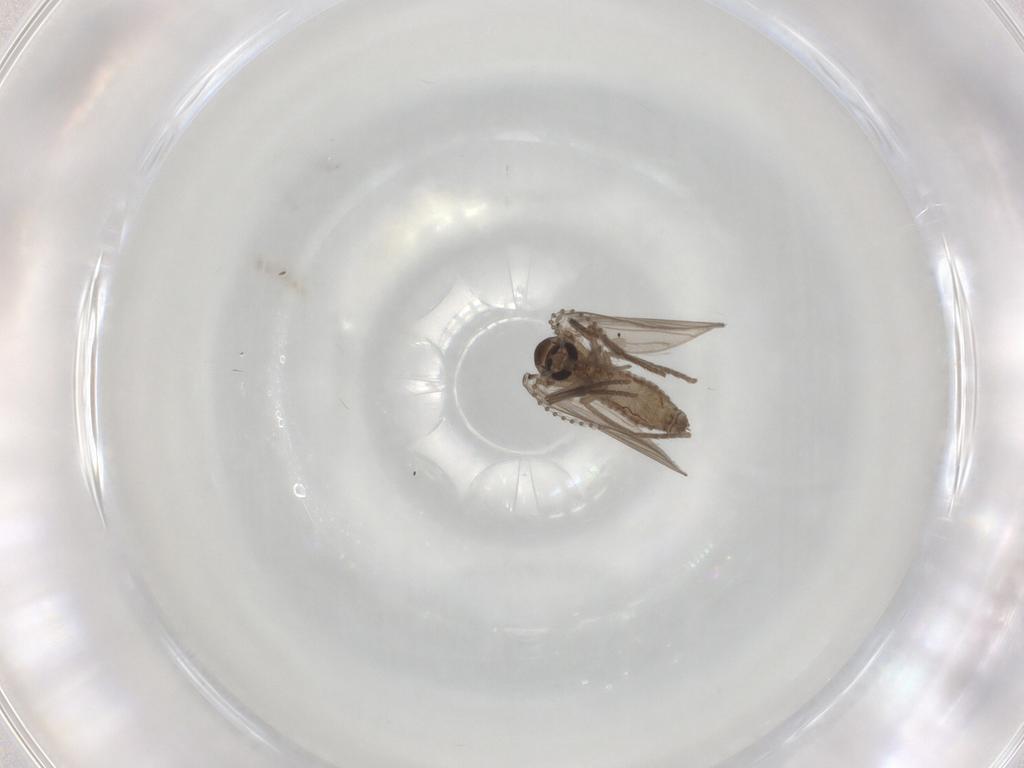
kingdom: Animalia
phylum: Arthropoda
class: Insecta
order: Diptera
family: Psychodidae
